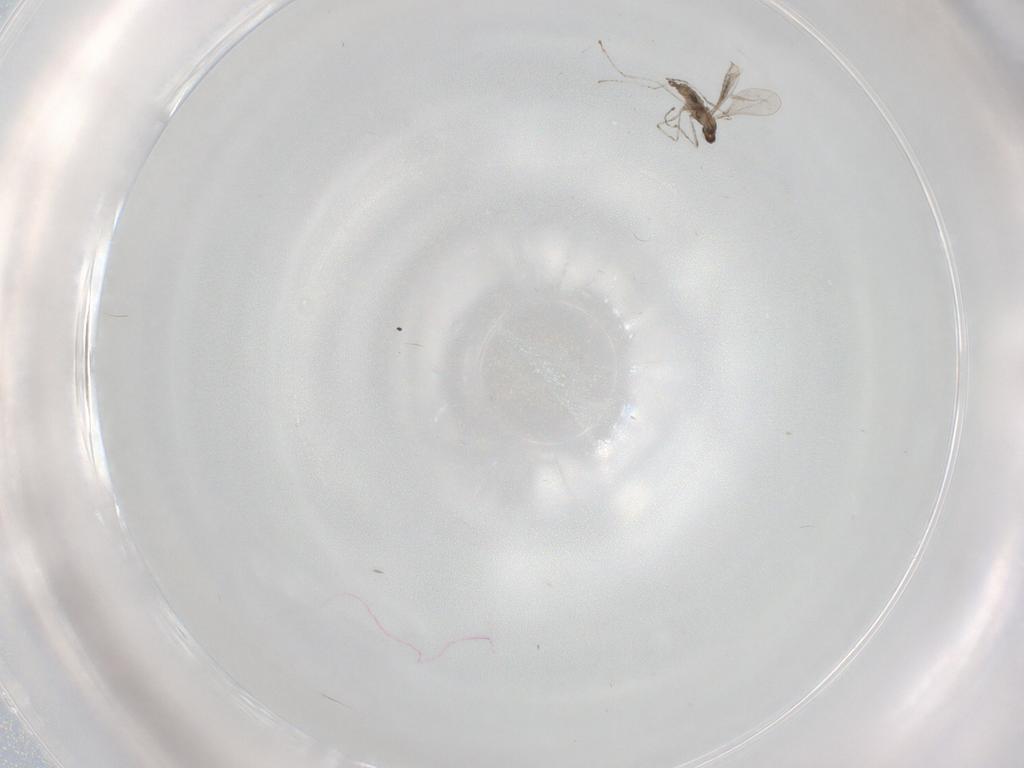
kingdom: Animalia
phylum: Arthropoda
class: Insecta
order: Diptera
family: Cecidomyiidae
